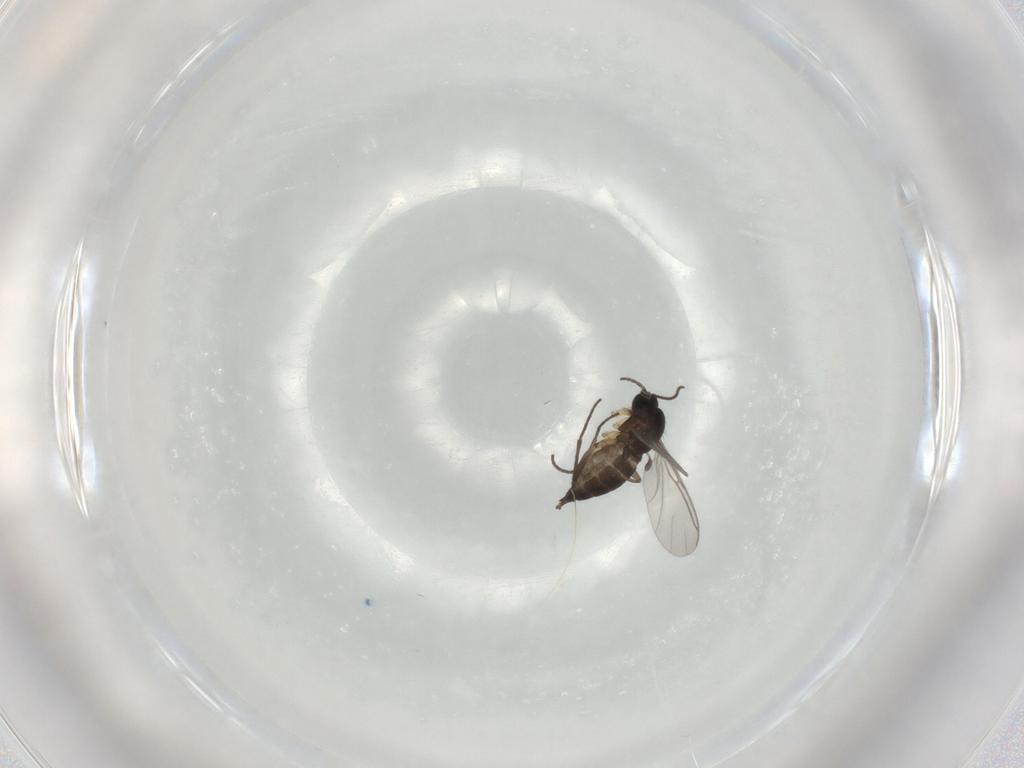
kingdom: Animalia
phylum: Arthropoda
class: Insecta
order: Diptera
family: Sciaridae
